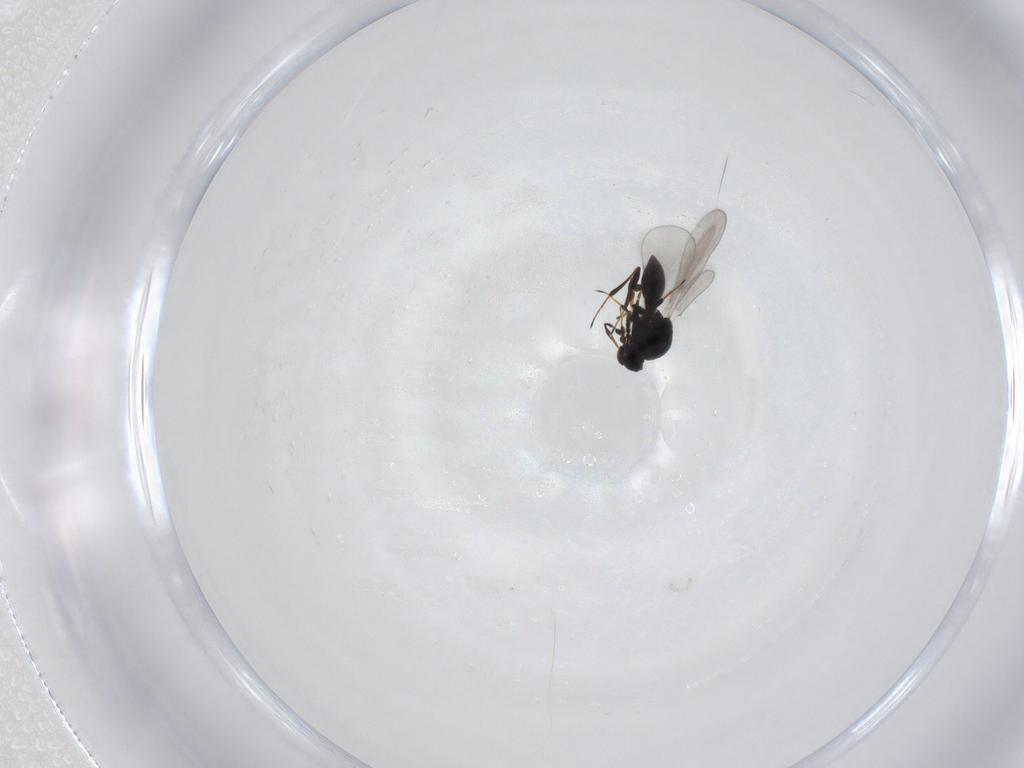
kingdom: Animalia
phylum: Arthropoda
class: Insecta
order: Hymenoptera
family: Platygastridae
